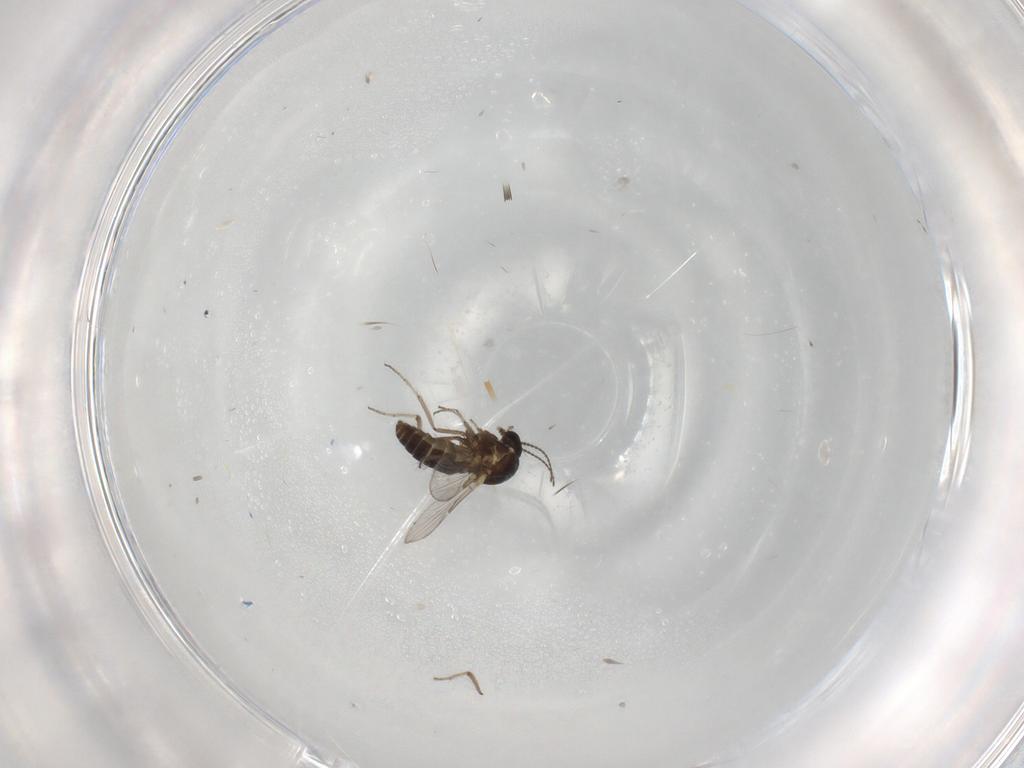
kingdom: Animalia
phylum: Arthropoda
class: Insecta
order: Diptera
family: Ceratopogonidae
